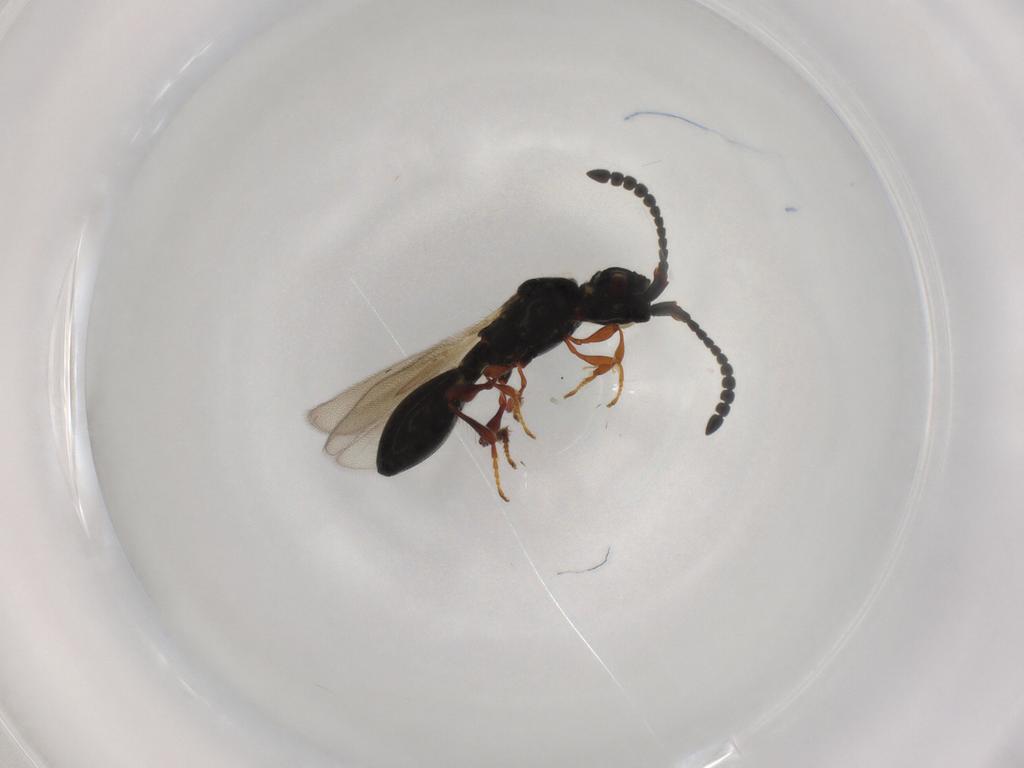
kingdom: Animalia
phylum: Arthropoda
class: Insecta
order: Hymenoptera
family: Diapriidae
